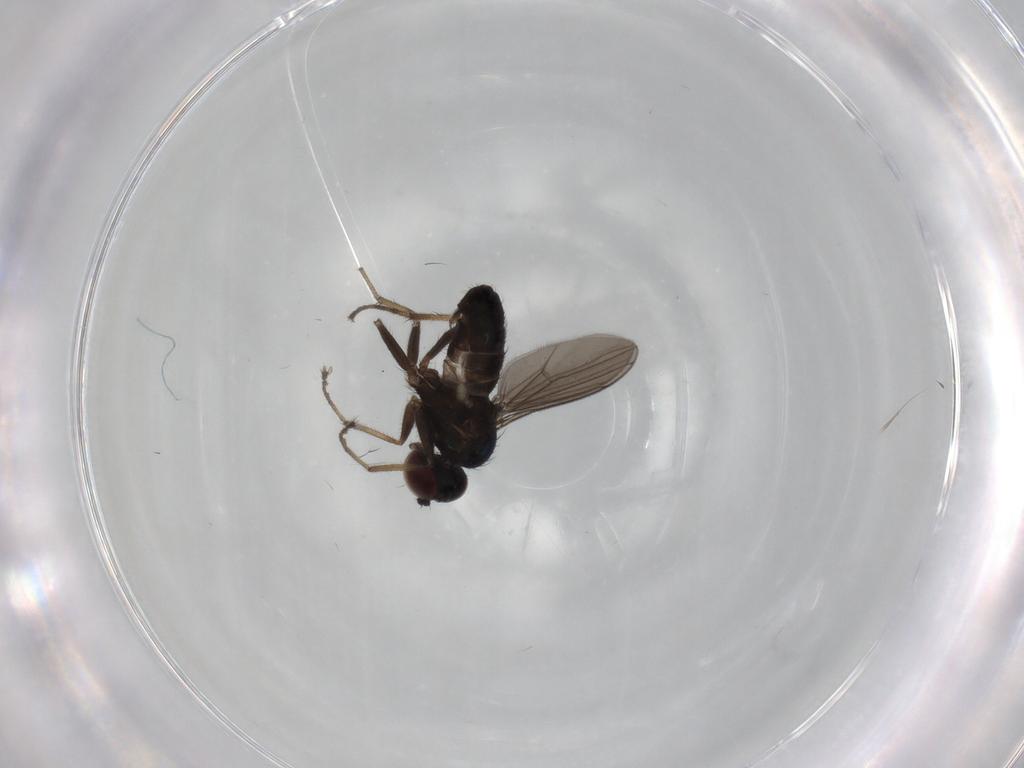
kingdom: Animalia
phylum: Arthropoda
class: Insecta
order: Diptera
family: Dolichopodidae
